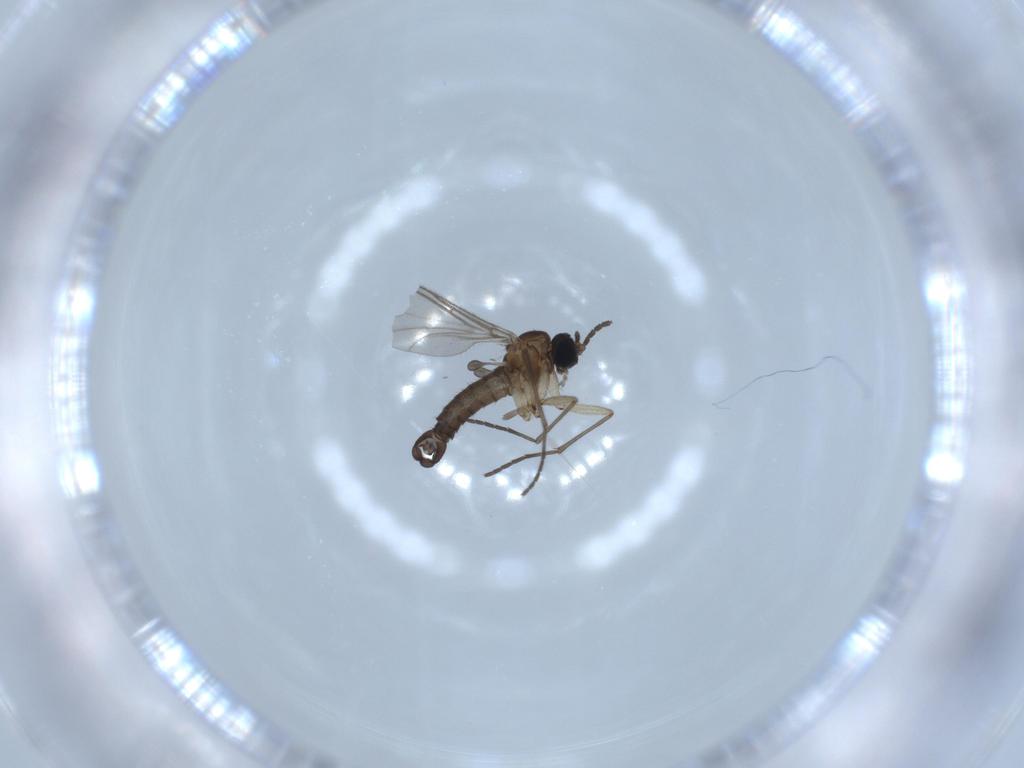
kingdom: Animalia
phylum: Arthropoda
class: Insecta
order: Diptera
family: Sciaridae
